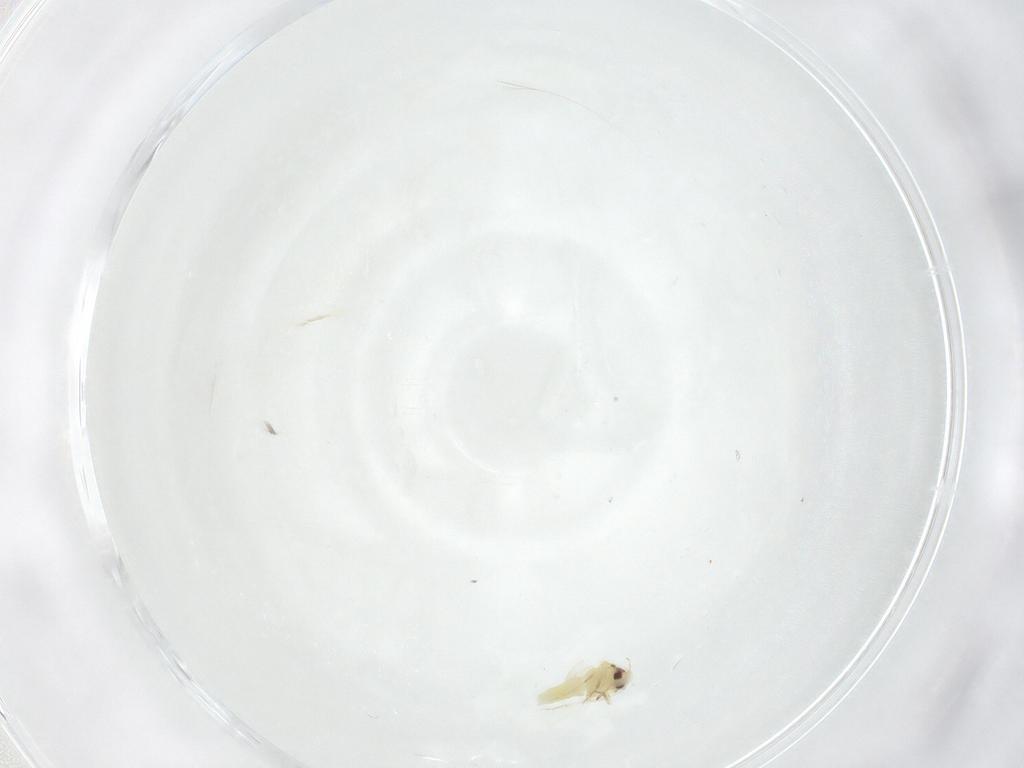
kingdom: Animalia
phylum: Arthropoda
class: Insecta
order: Hemiptera
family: Aleyrodidae
